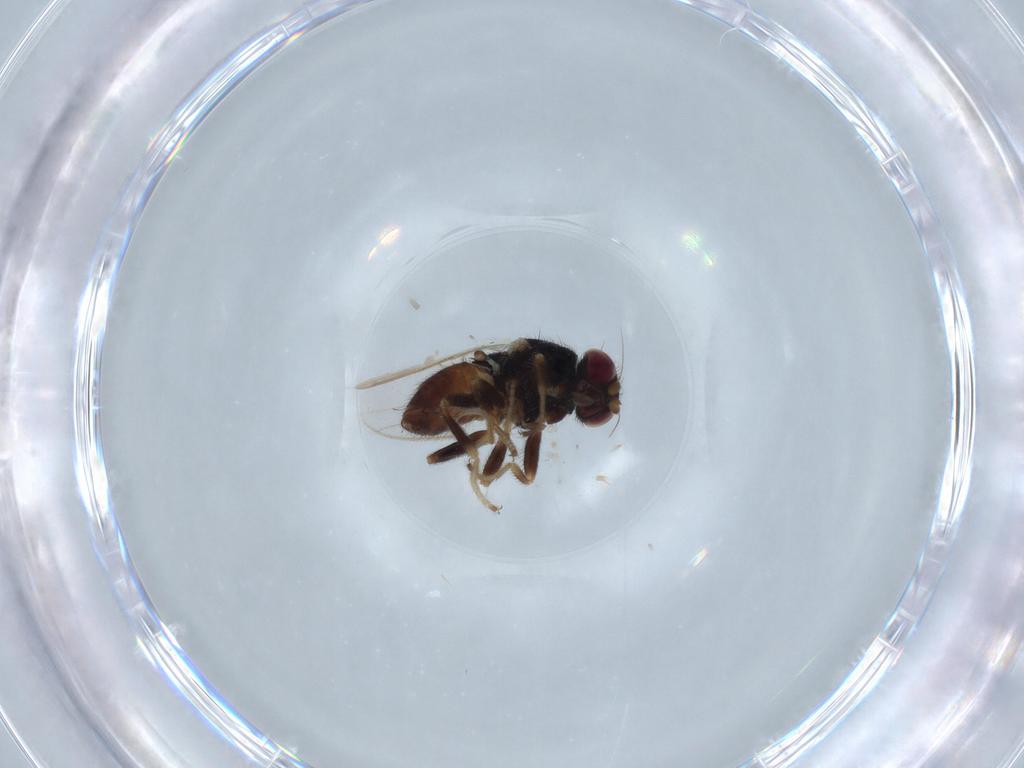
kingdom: Animalia
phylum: Arthropoda
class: Insecta
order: Diptera
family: Chloropidae
